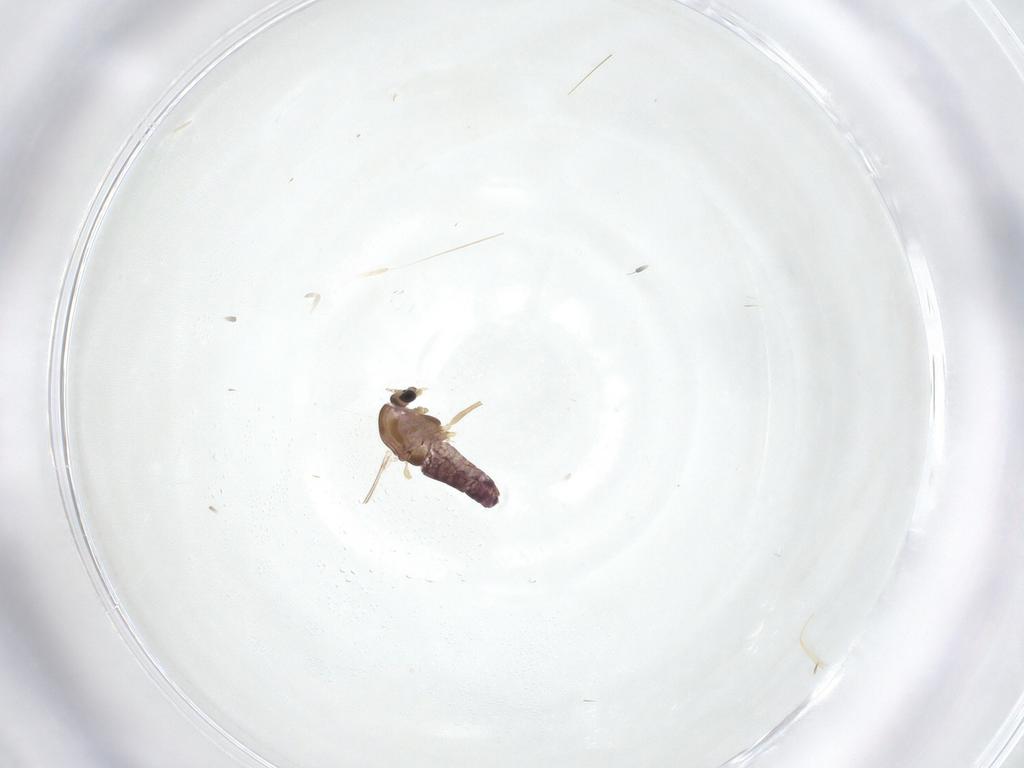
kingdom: Animalia
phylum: Arthropoda
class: Insecta
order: Diptera
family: Chironomidae
